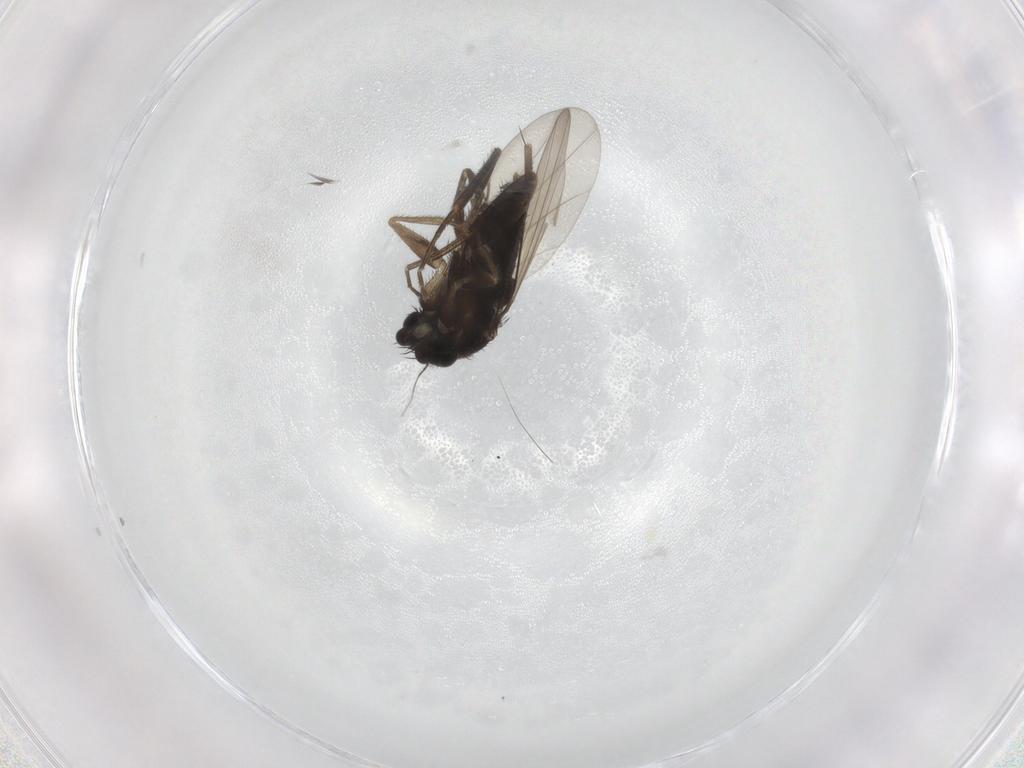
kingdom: Animalia
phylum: Arthropoda
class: Insecta
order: Diptera
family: Phoridae
